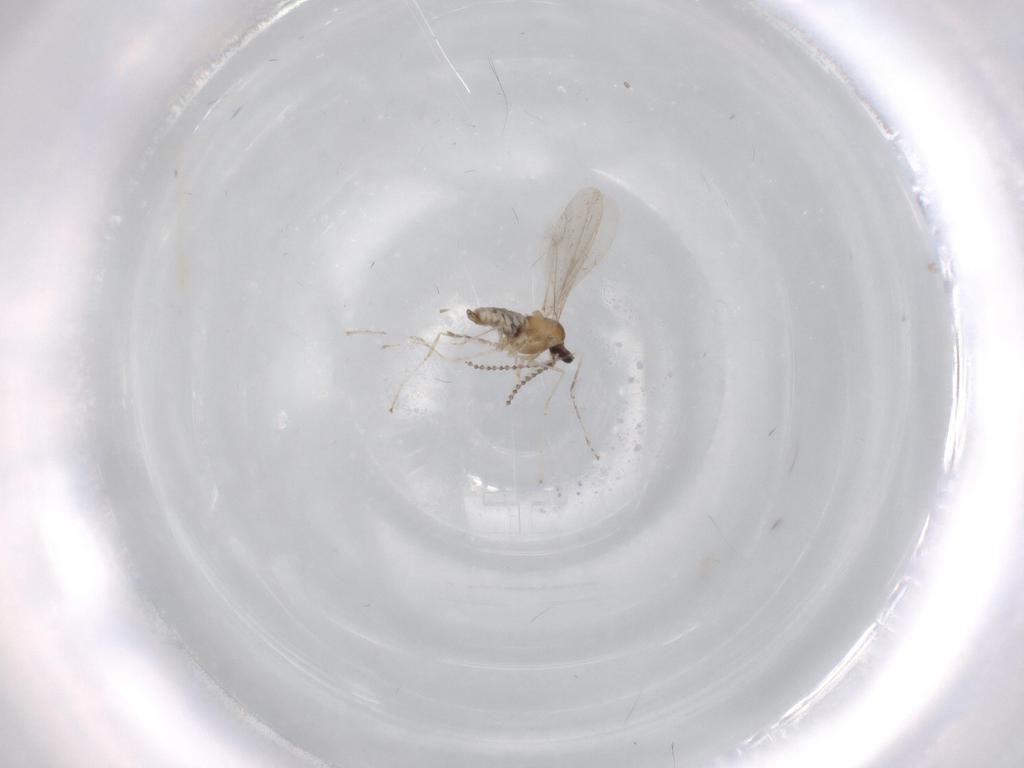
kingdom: Animalia
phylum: Arthropoda
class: Insecta
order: Diptera
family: Cecidomyiidae
